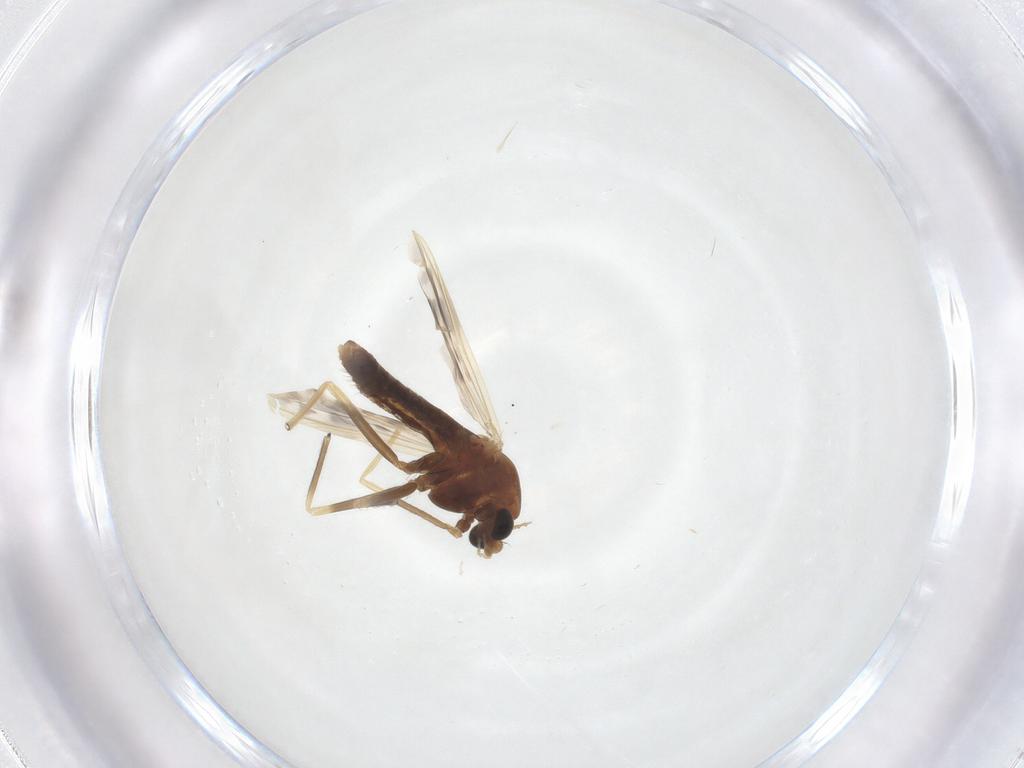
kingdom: Animalia
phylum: Arthropoda
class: Insecta
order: Diptera
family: Chironomidae
